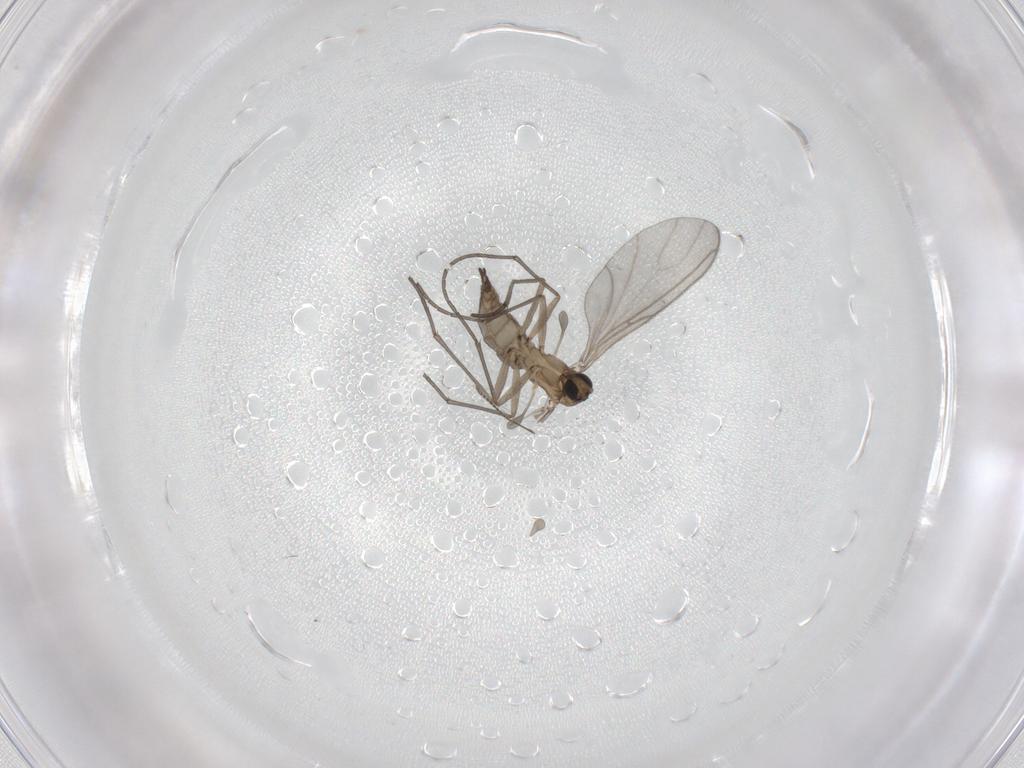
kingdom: Animalia
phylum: Arthropoda
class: Insecta
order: Diptera
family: Sciaridae
